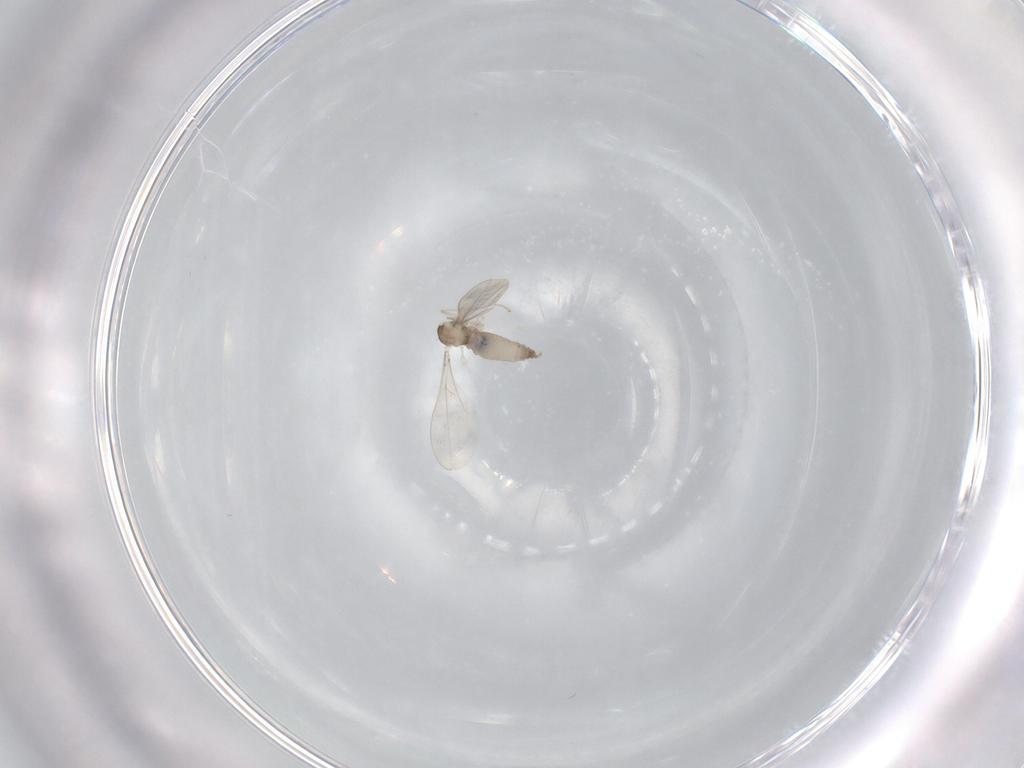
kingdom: Animalia
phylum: Arthropoda
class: Insecta
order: Diptera
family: Cecidomyiidae
